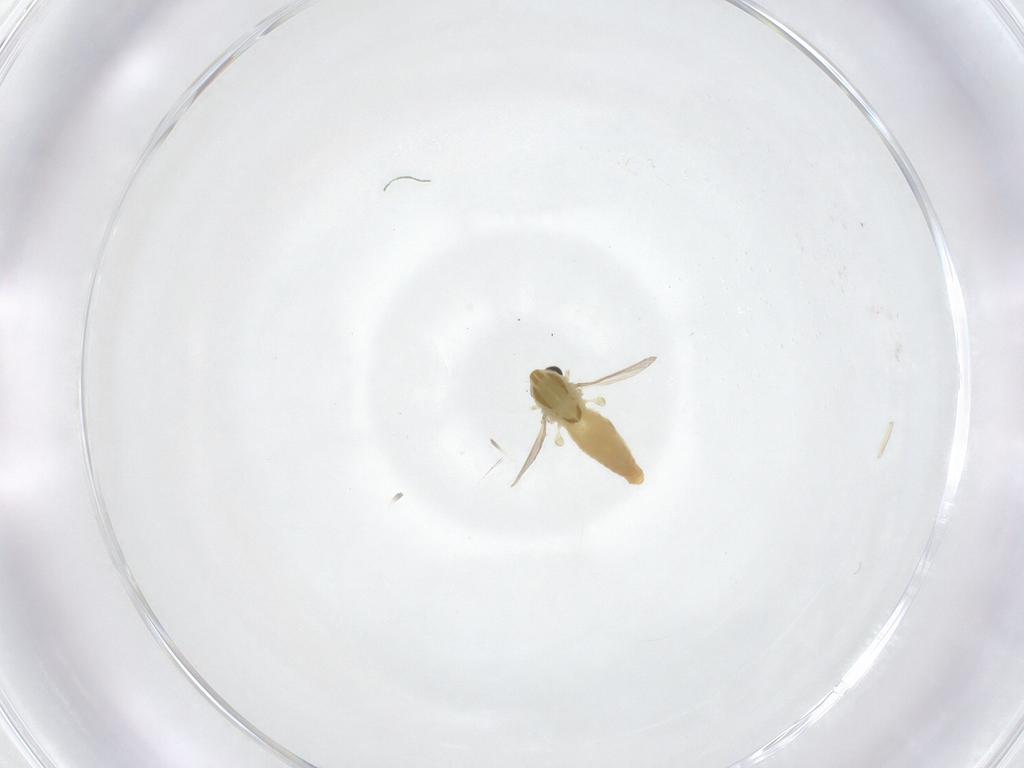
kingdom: Animalia
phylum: Arthropoda
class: Insecta
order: Diptera
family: Chironomidae
